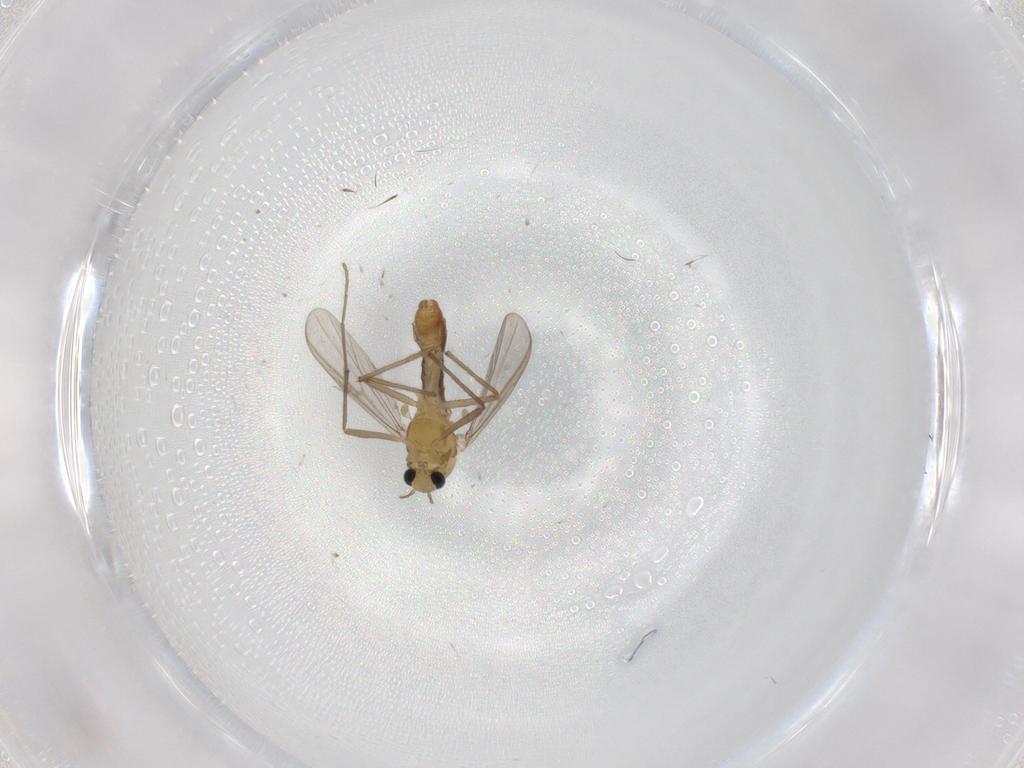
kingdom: Animalia
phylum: Arthropoda
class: Insecta
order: Diptera
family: Chironomidae
